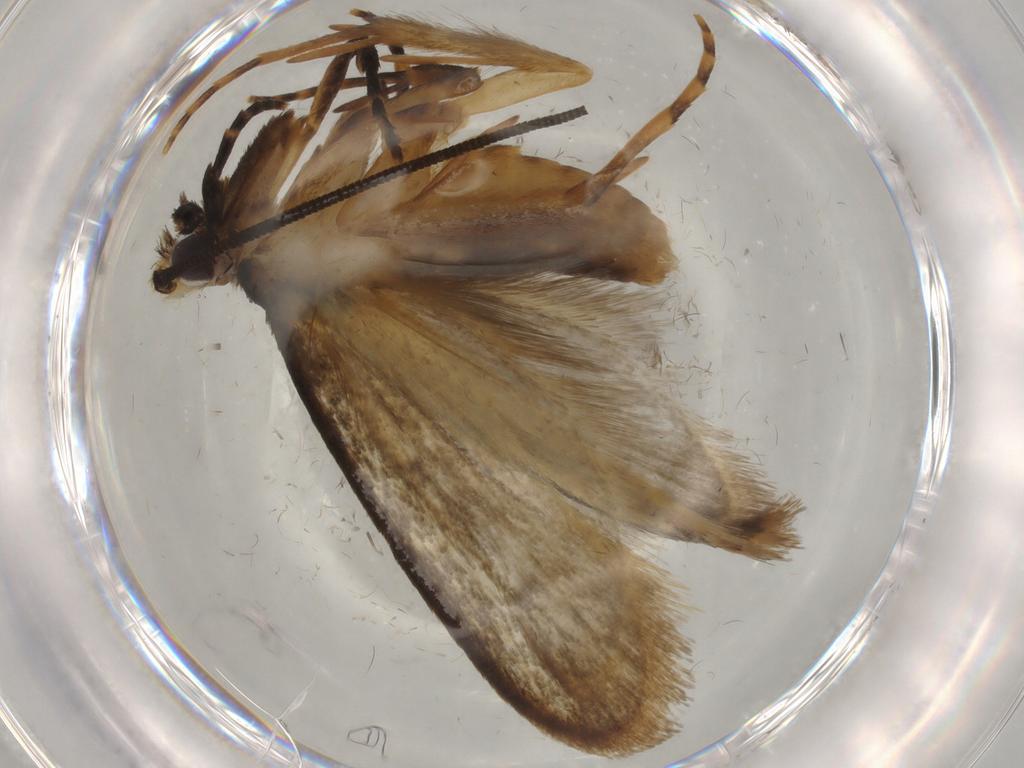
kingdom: Animalia
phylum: Arthropoda
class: Insecta
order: Lepidoptera
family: Tineidae
